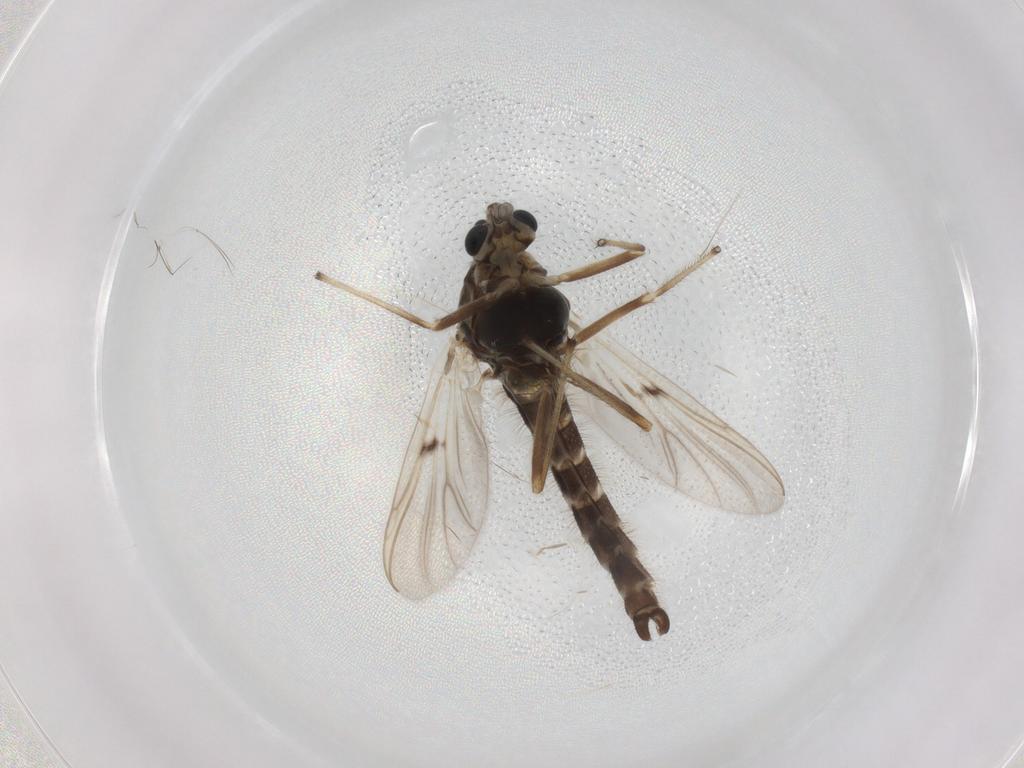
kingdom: Animalia
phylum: Arthropoda
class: Insecta
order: Diptera
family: Chironomidae
